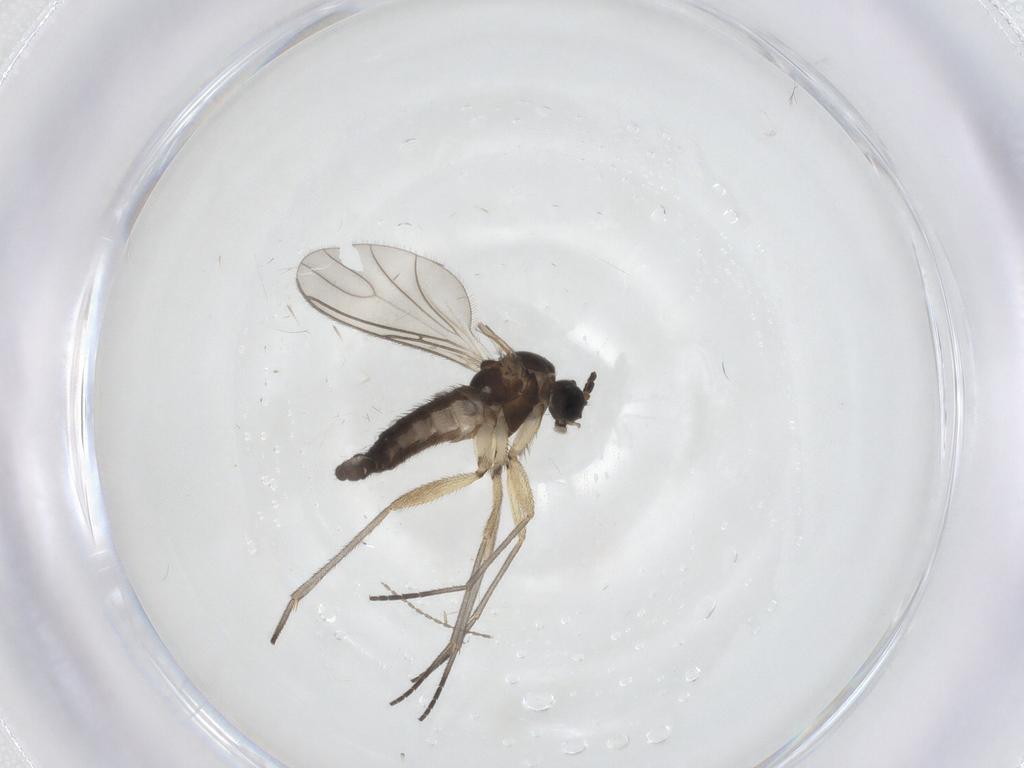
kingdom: Animalia
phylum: Arthropoda
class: Insecta
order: Diptera
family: Sciaridae
